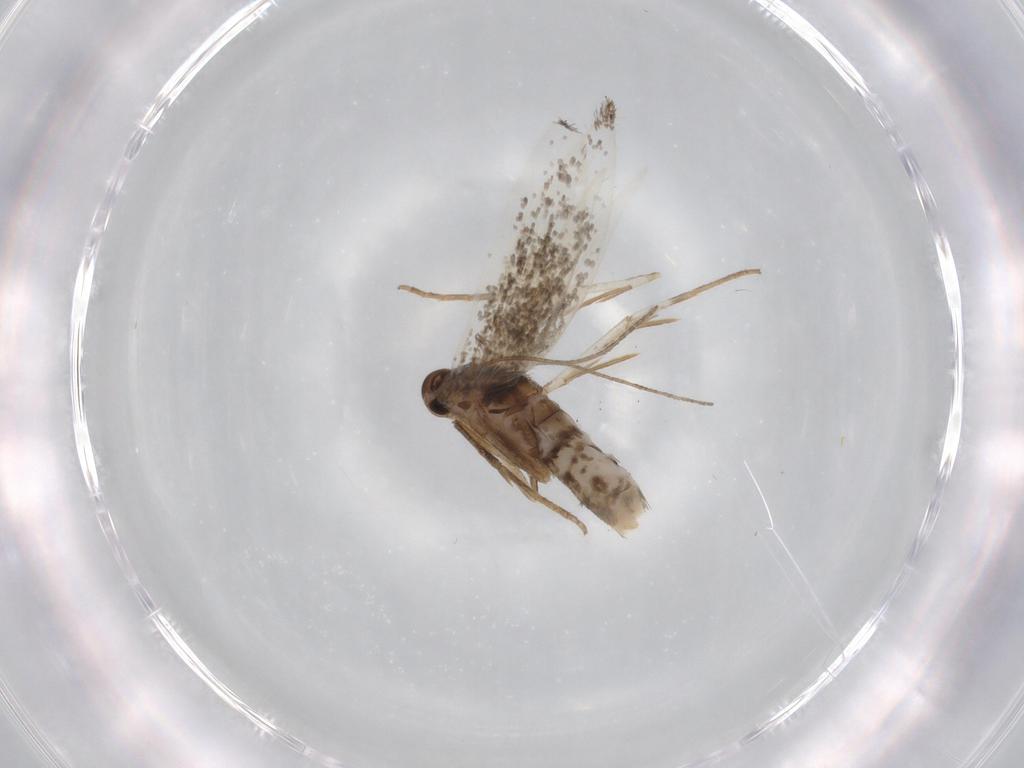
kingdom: Animalia
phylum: Arthropoda
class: Insecta
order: Lepidoptera
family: Elachistidae
